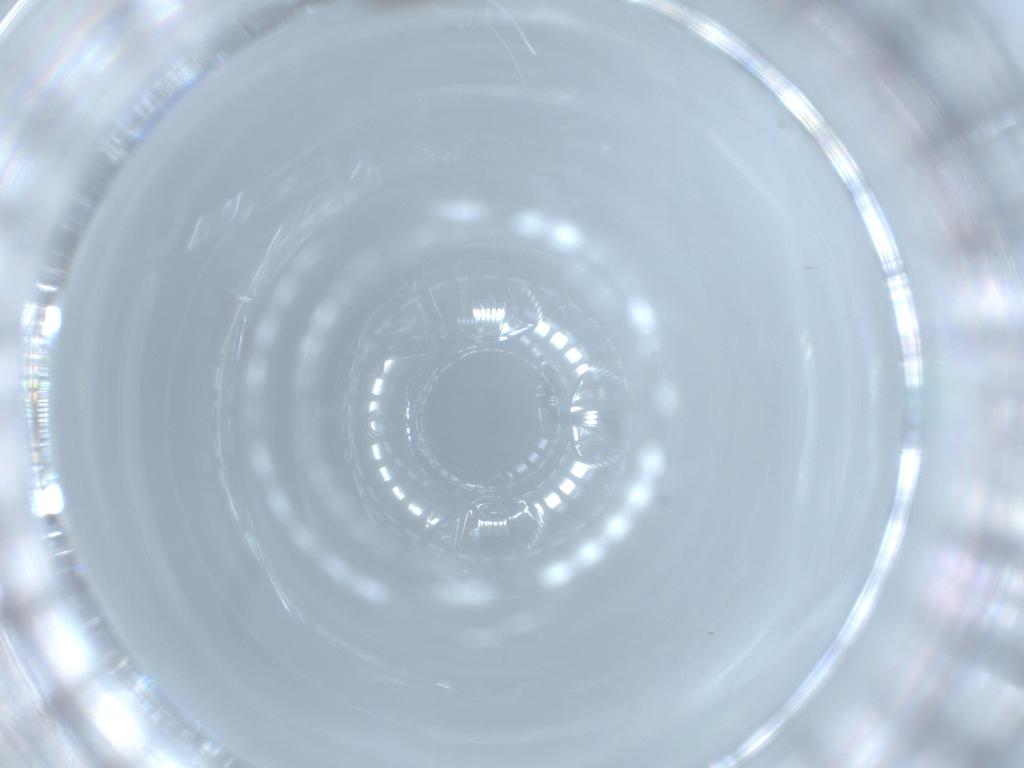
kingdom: Animalia
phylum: Arthropoda
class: Insecta
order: Diptera
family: Chironomidae
